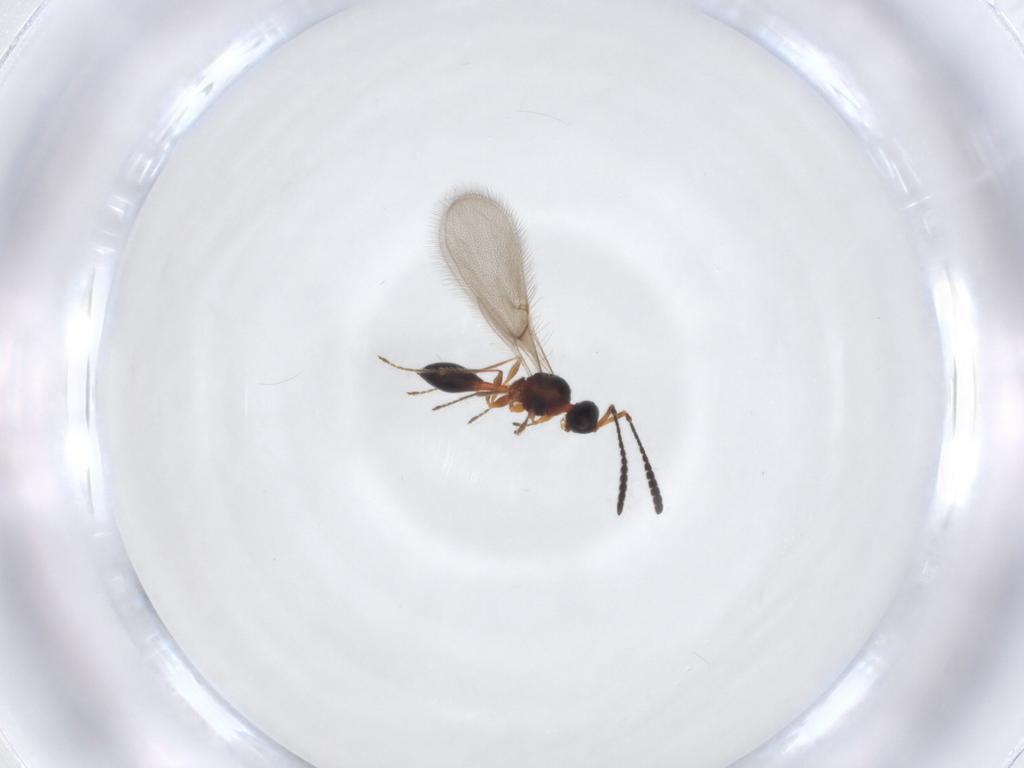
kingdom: Animalia
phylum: Arthropoda
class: Insecta
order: Hymenoptera
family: Diapriidae
